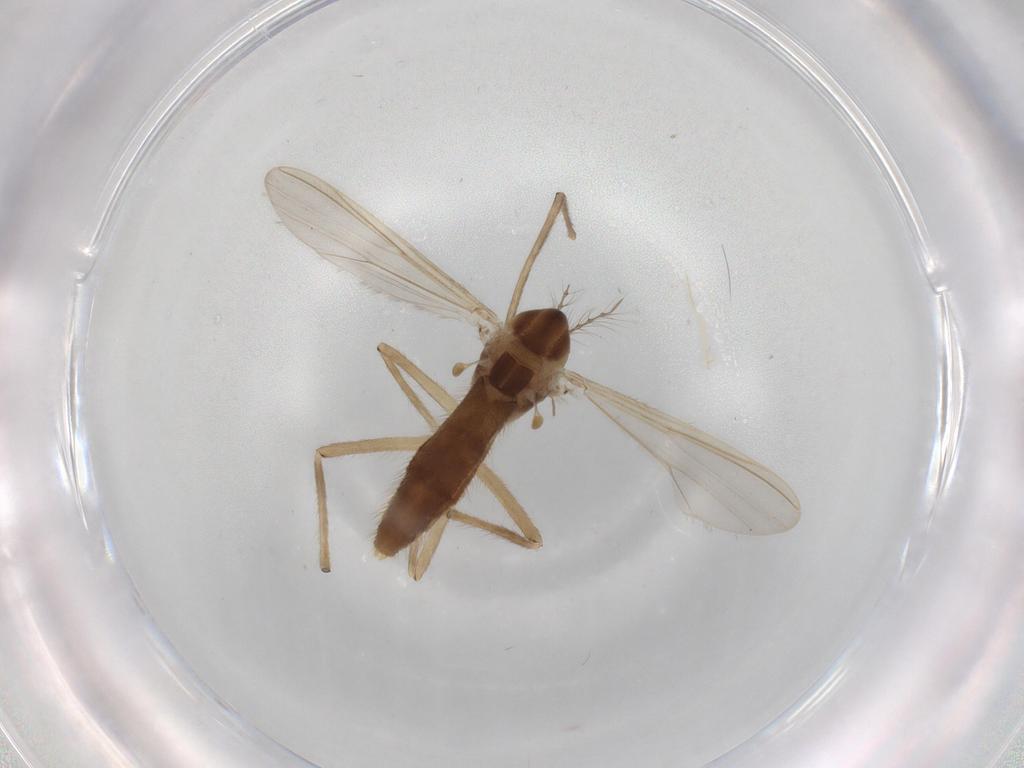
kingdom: Animalia
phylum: Arthropoda
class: Insecta
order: Diptera
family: Chironomidae
